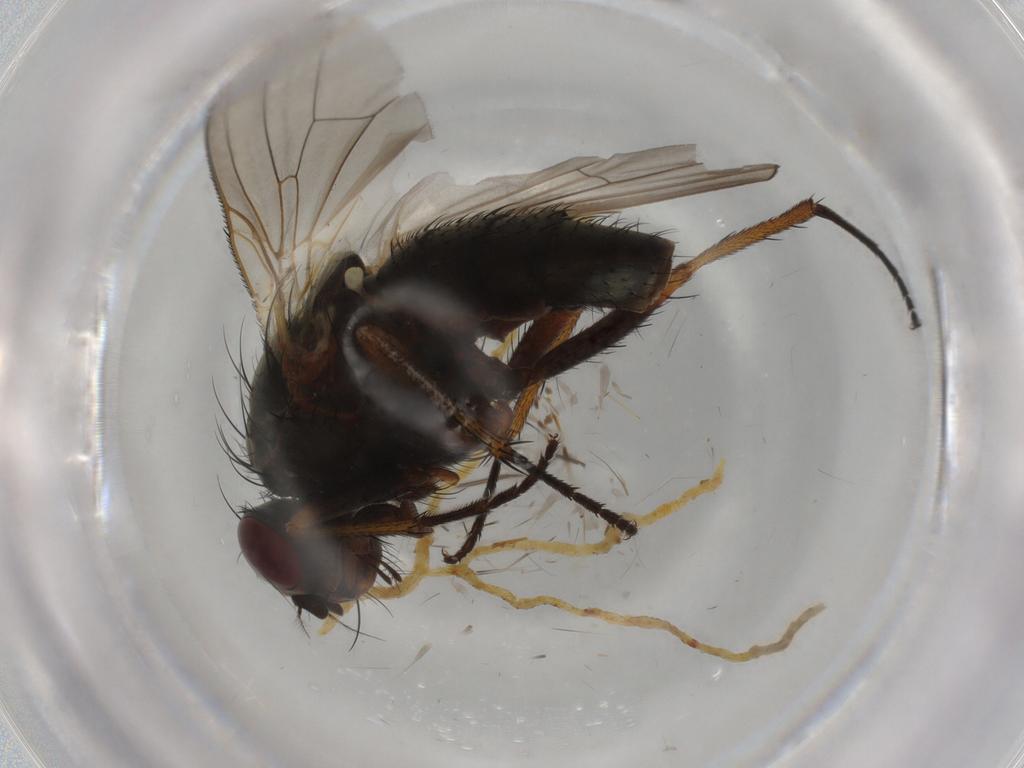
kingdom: Animalia
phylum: Arthropoda
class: Insecta
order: Diptera
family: Anthomyiidae
